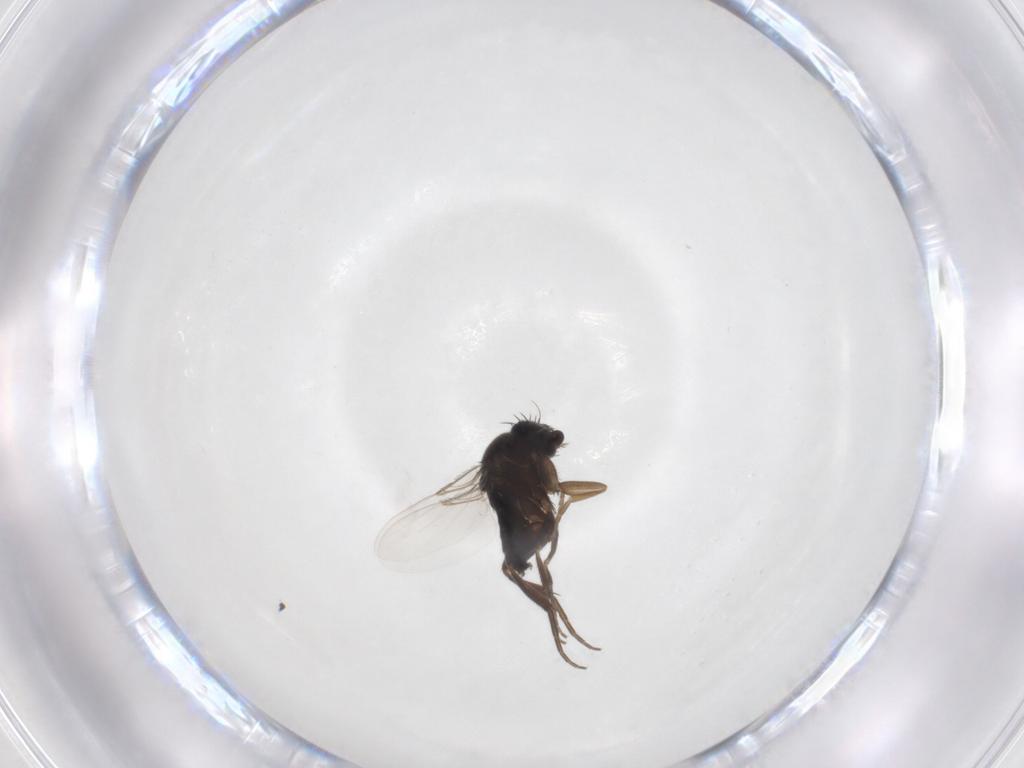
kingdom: Animalia
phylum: Arthropoda
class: Insecta
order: Diptera
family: Phoridae
